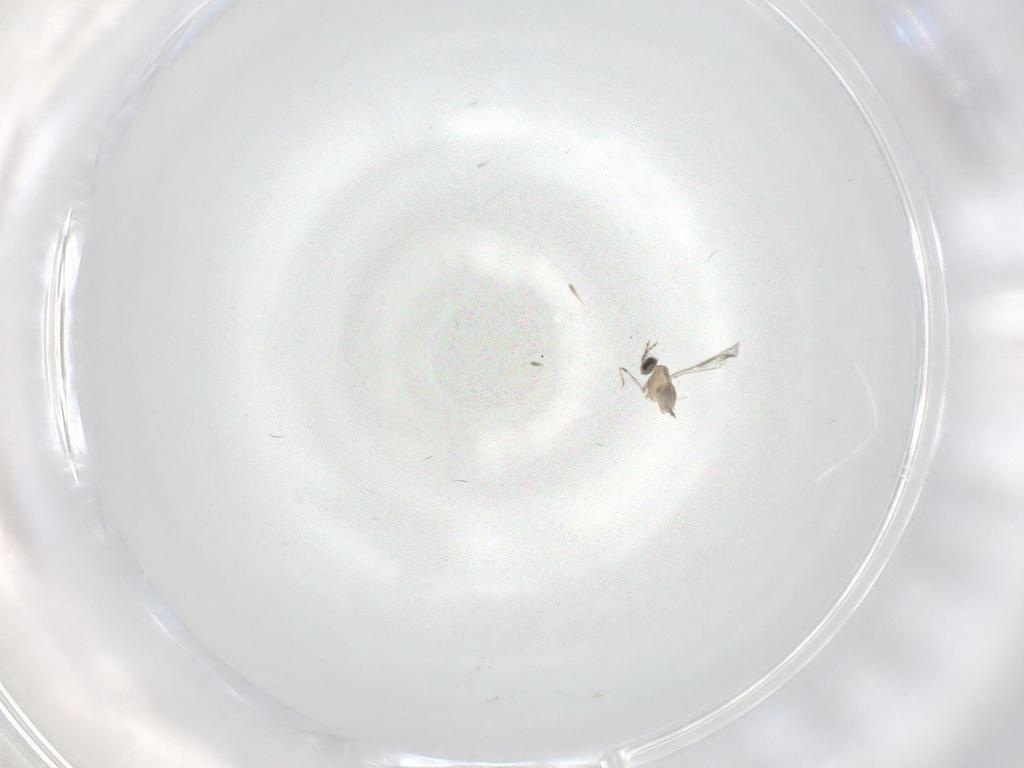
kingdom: Animalia
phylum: Arthropoda
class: Insecta
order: Diptera
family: Cecidomyiidae
